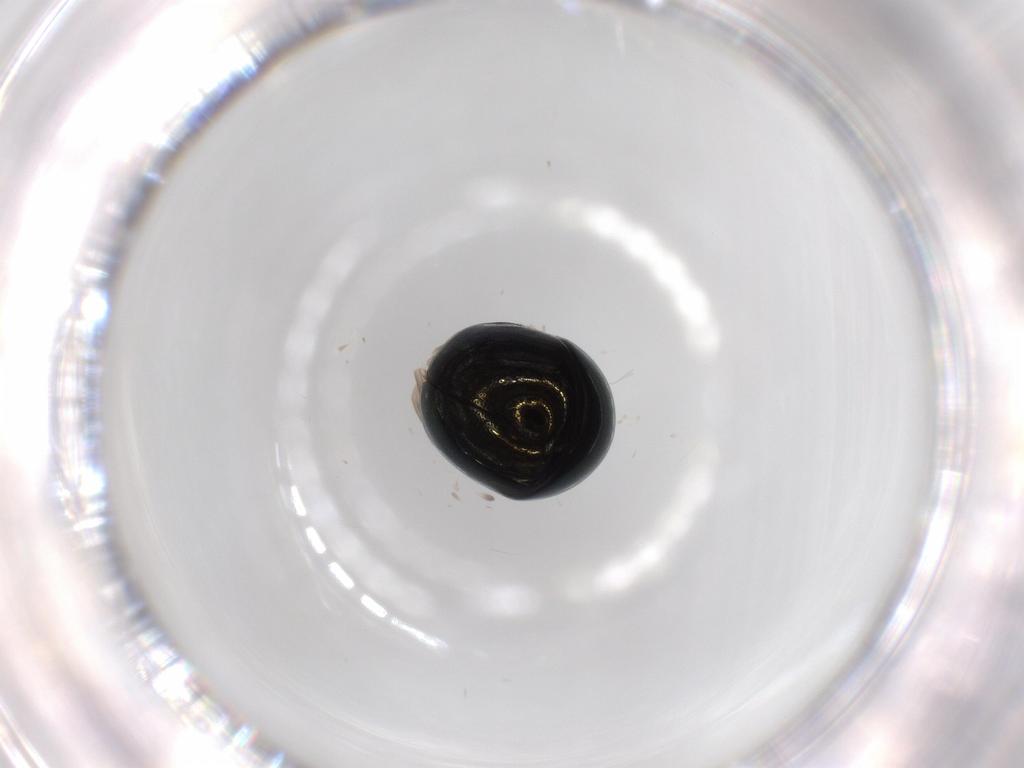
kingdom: Animalia
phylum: Arthropoda
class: Insecta
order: Coleoptera
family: Cybocephalidae
